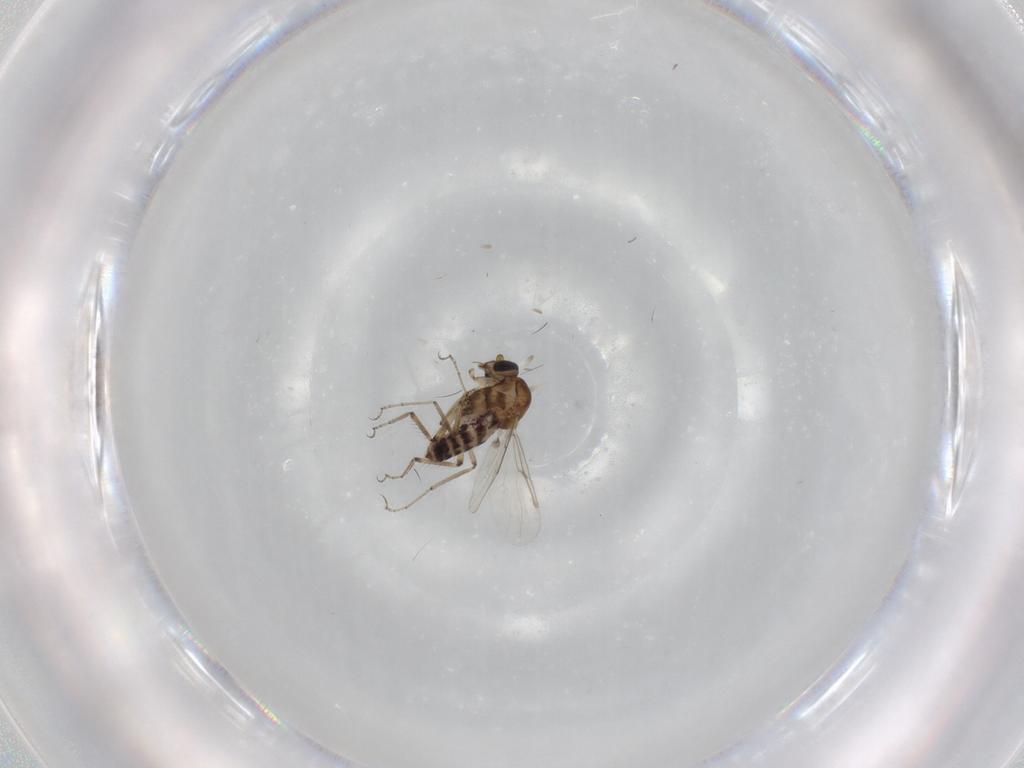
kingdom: Animalia
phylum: Arthropoda
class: Insecta
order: Diptera
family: Ceratopogonidae
